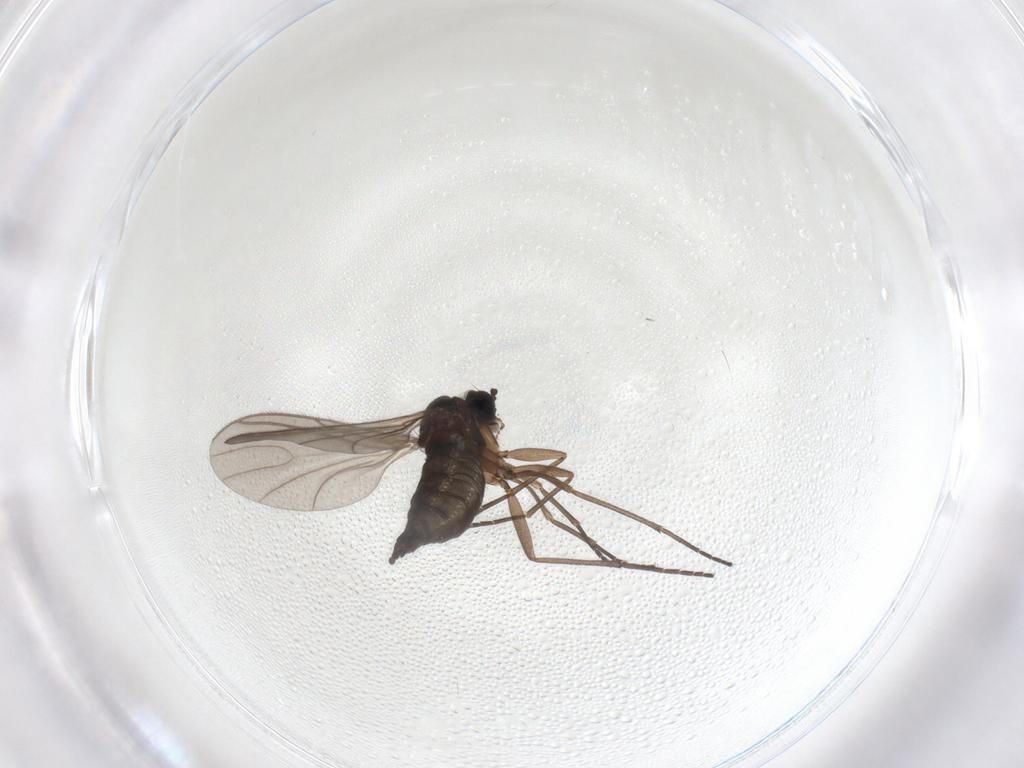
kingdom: Animalia
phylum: Arthropoda
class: Insecta
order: Diptera
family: Sciaridae
